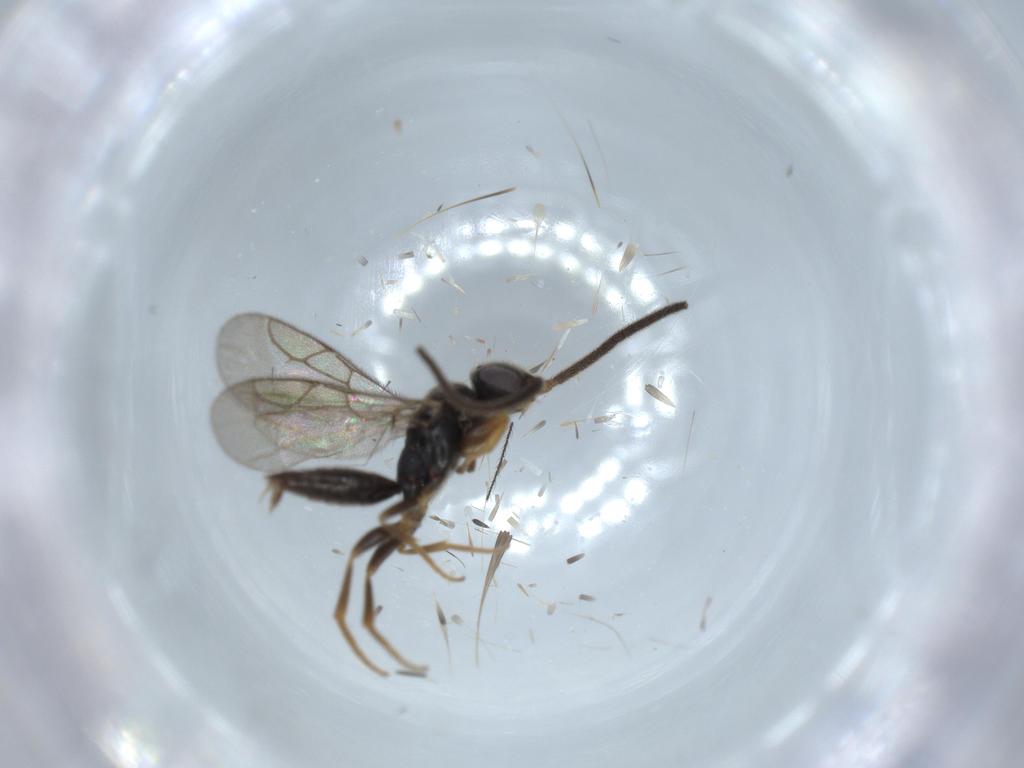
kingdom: Animalia
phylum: Arthropoda
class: Insecta
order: Hymenoptera
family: Sclerogibbidae
